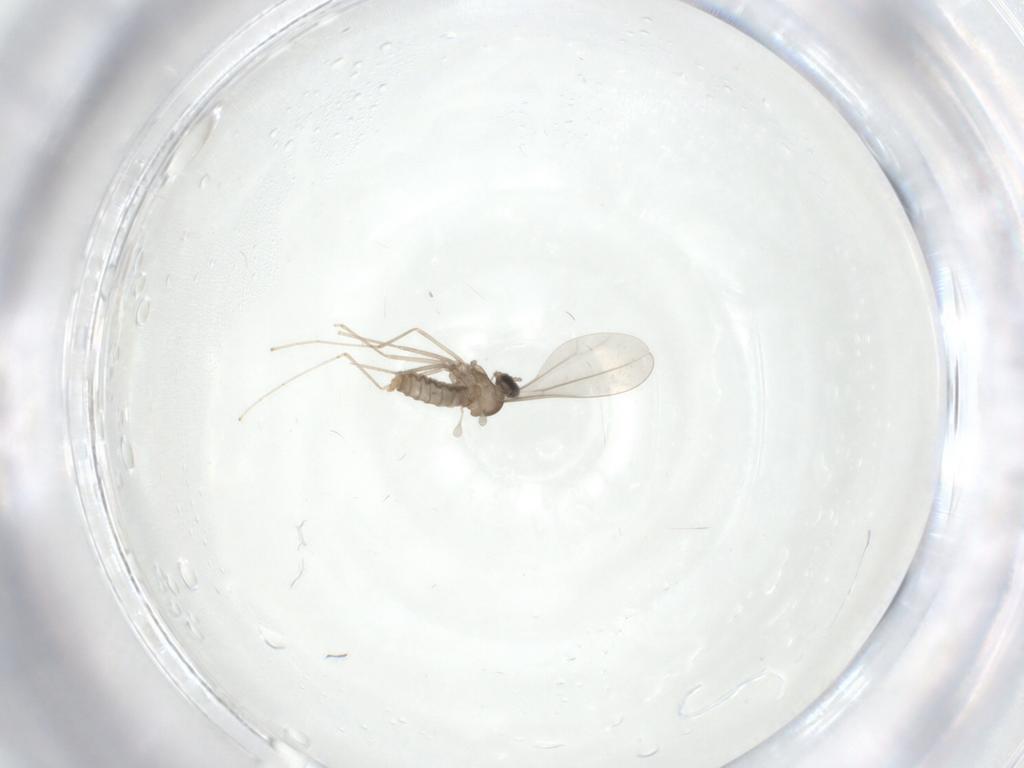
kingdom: Animalia
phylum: Arthropoda
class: Insecta
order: Diptera
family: Cecidomyiidae
